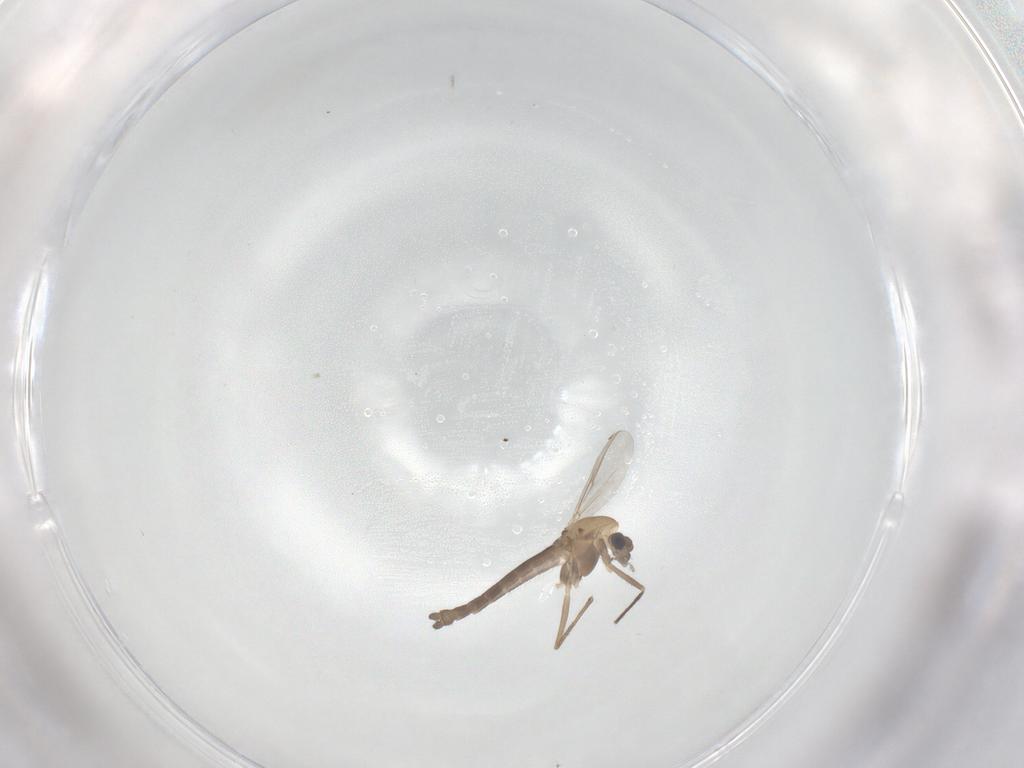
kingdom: Animalia
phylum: Arthropoda
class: Insecta
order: Diptera
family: Chironomidae
